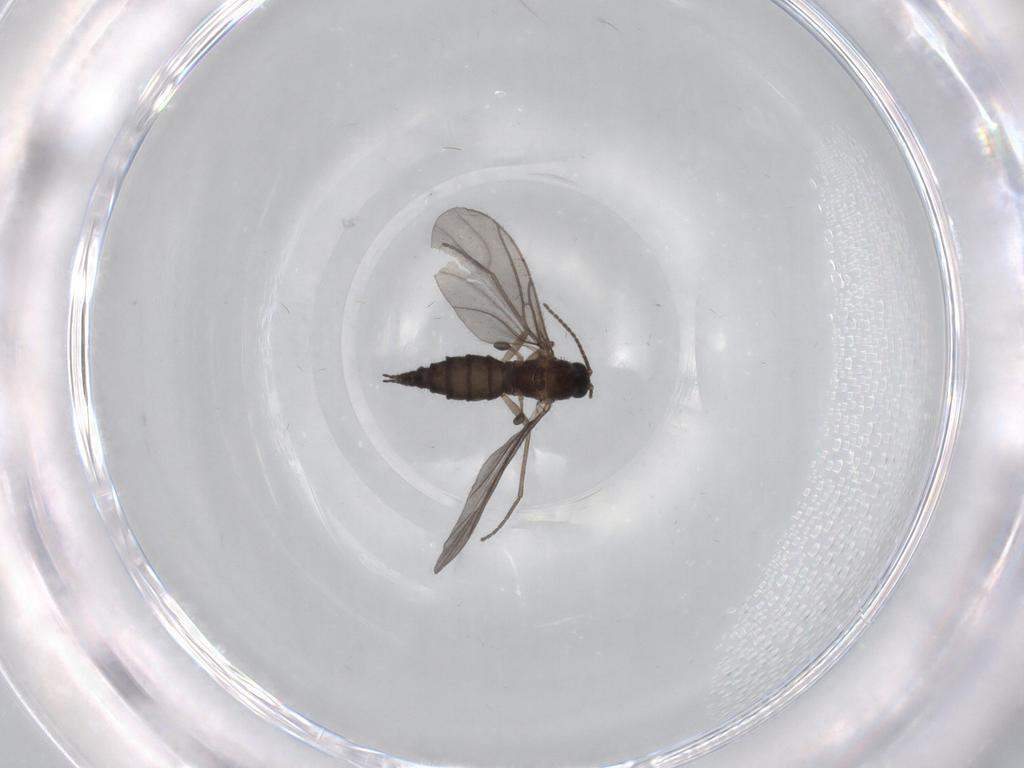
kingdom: Animalia
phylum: Arthropoda
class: Insecta
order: Diptera
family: Sciaridae
